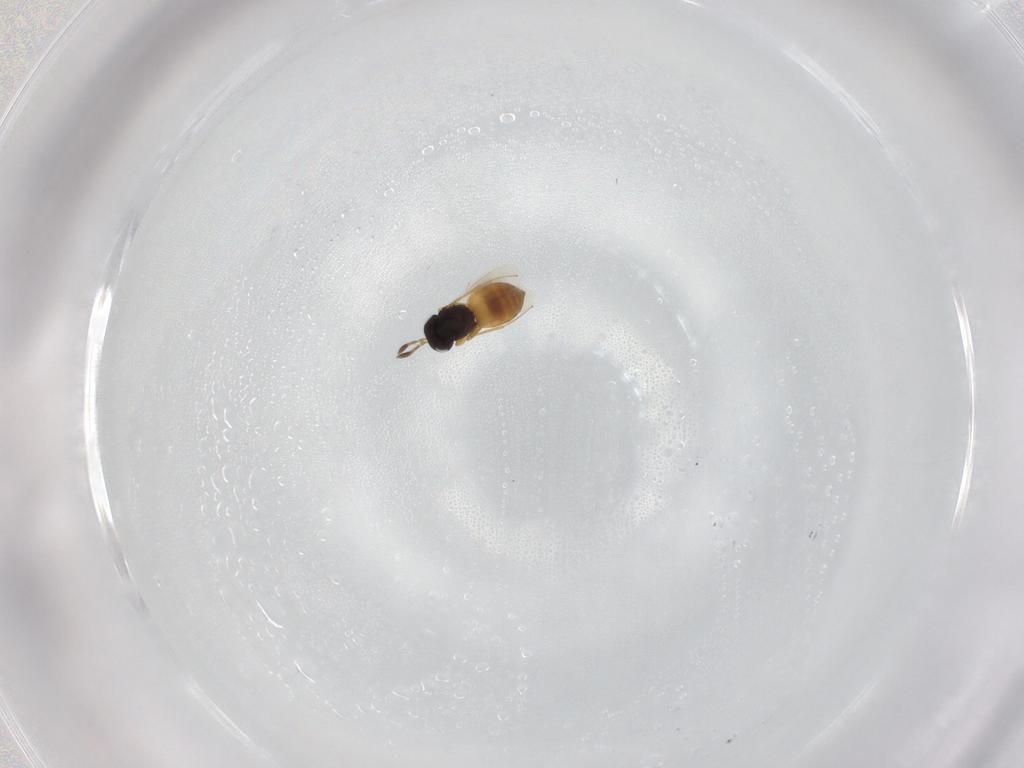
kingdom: Animalia
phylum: Arthropoda
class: Insecta
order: Hymenoptera
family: Scelionidae
